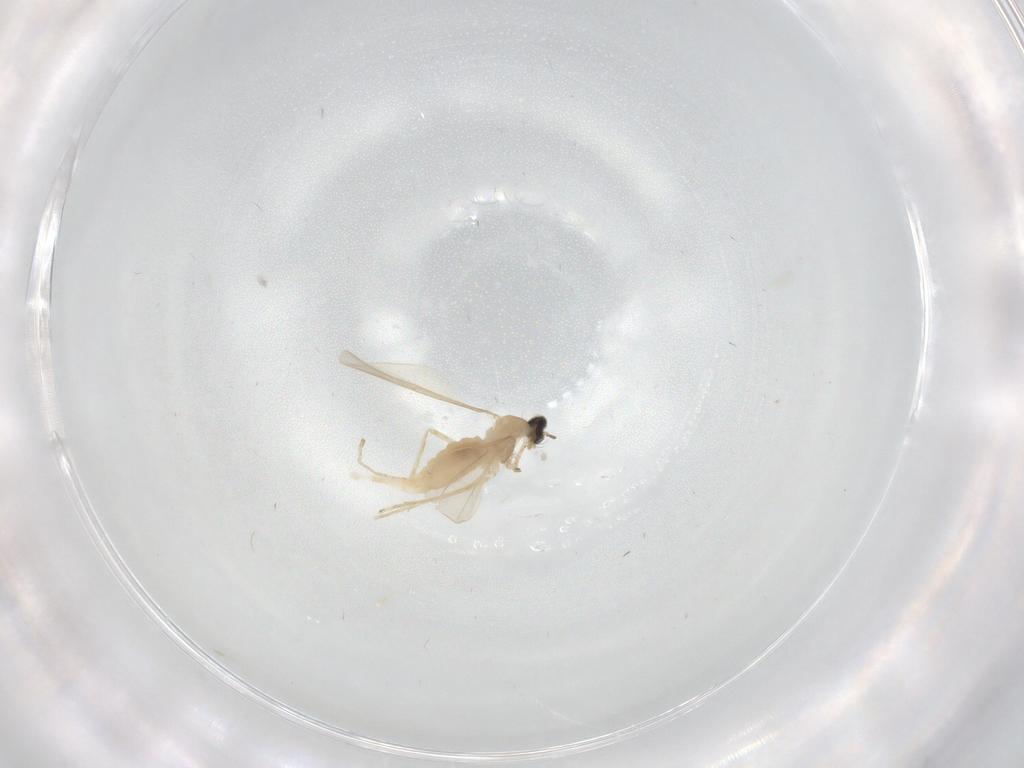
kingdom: Animalia
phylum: Arthropoda
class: Insecta
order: Diptera
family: Cecidomyiidae
